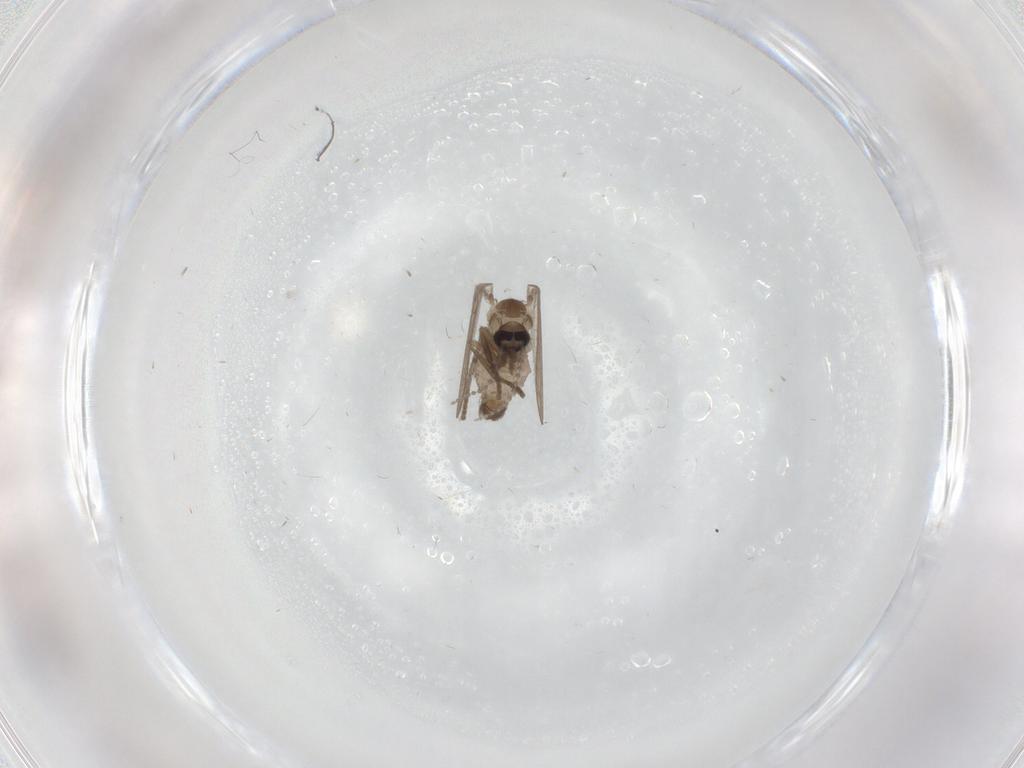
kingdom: Animalia
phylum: Arthropoda
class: Insecta
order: Diptera
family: Psychodidae
